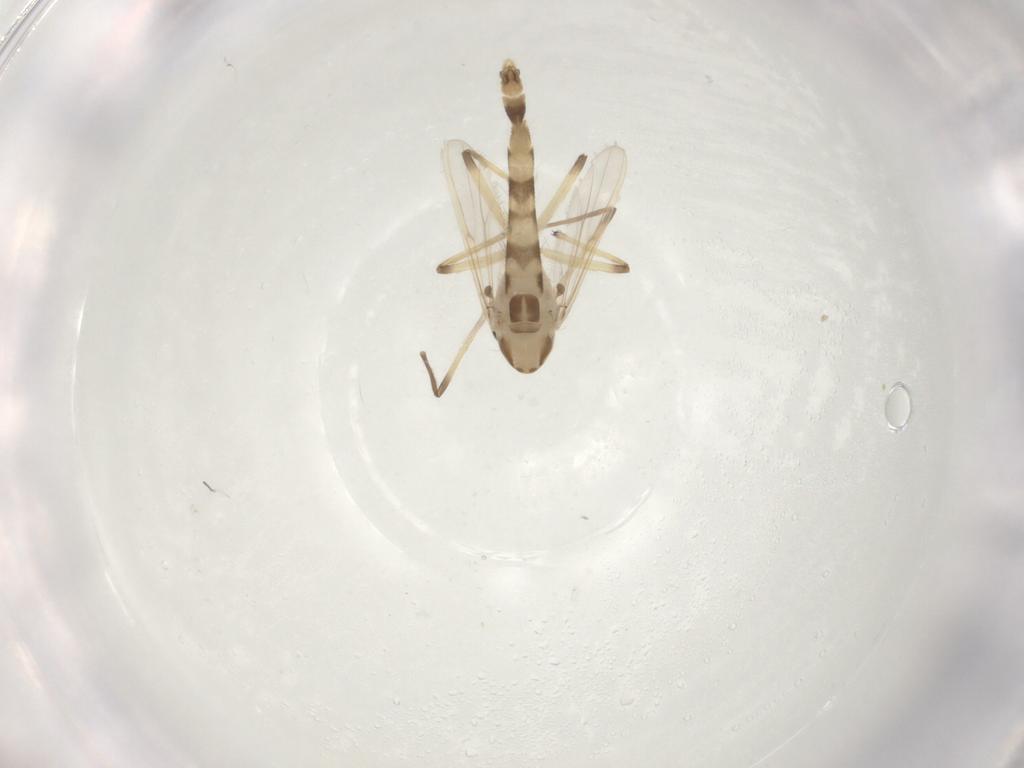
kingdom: Animalia
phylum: Arthropoda
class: Insecta
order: Diptera
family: Chironomidae
